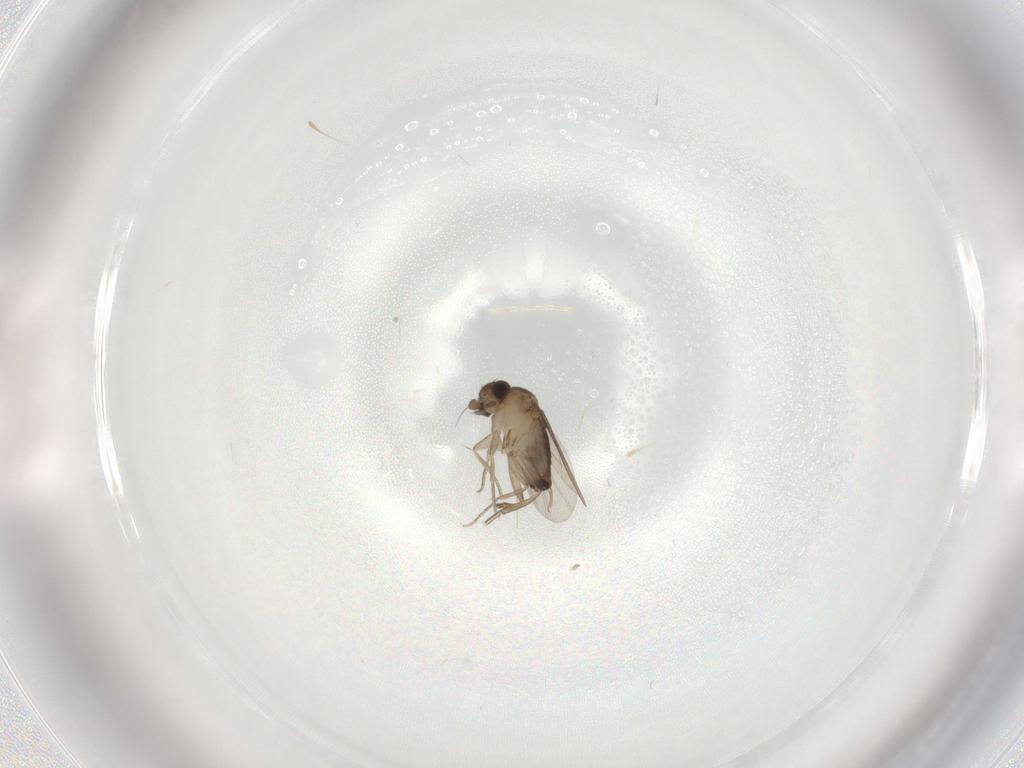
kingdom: Animalia
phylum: Arthropoda
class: Insecta
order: Diptera
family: Phoridae
